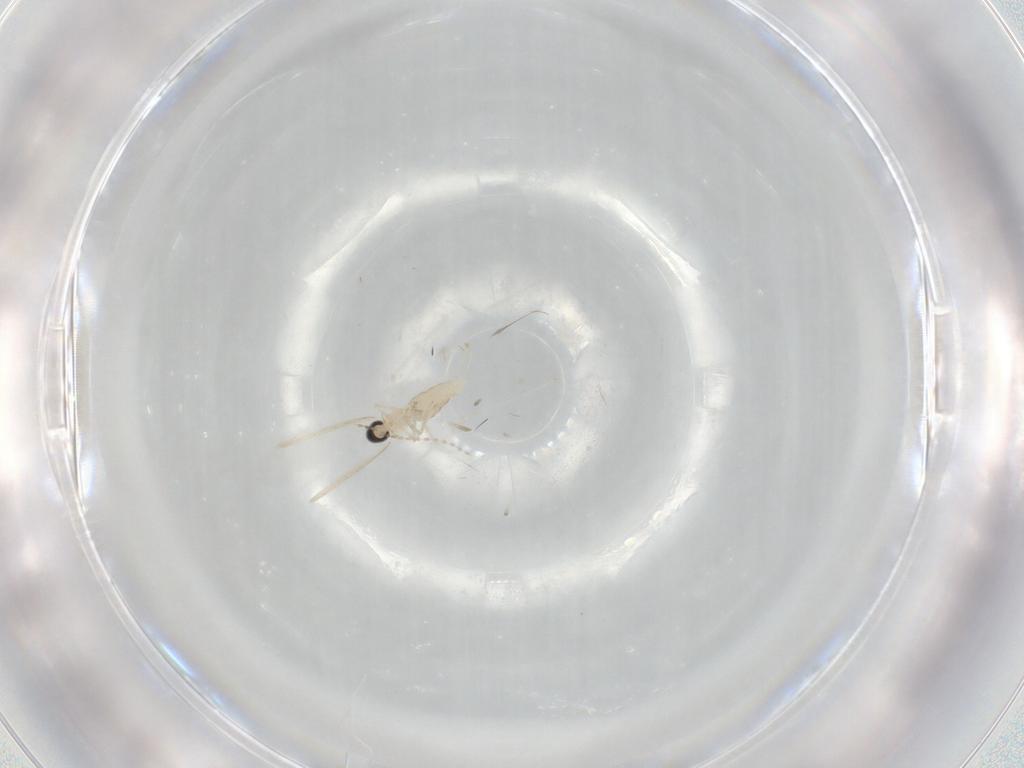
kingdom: Animalia
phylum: Arthropoda
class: Insecta
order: Diptera
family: Cecidomyiidae
